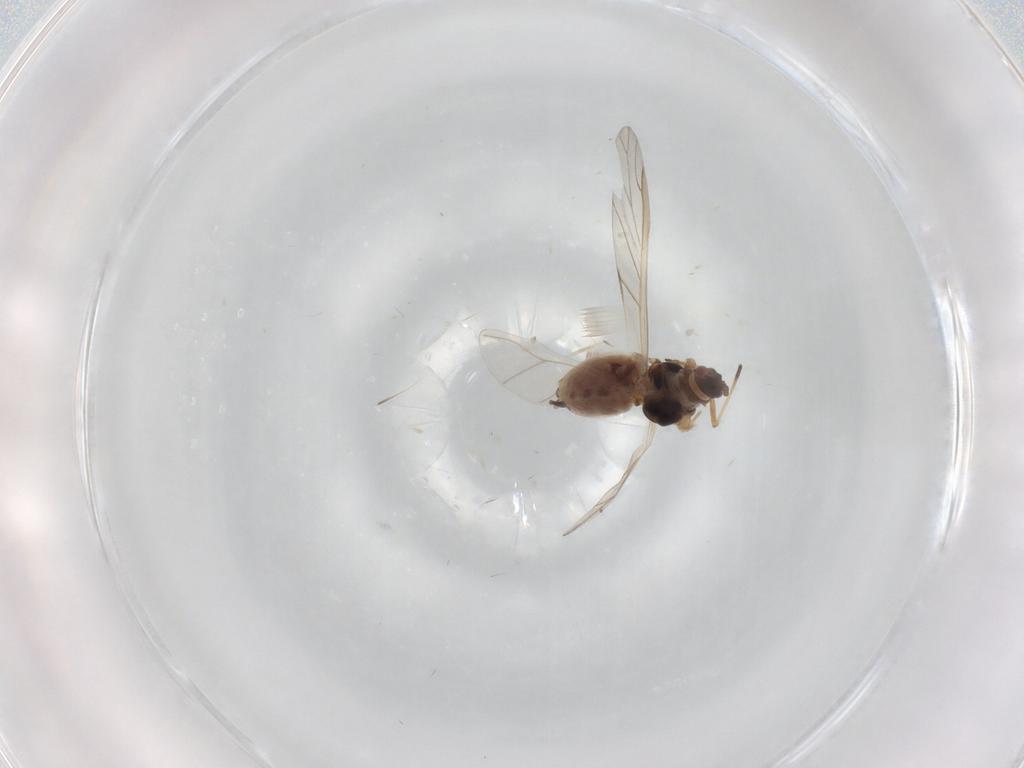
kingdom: Animalia
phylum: Arthropoda
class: Insecta
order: Hemiptera
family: Aphididae
